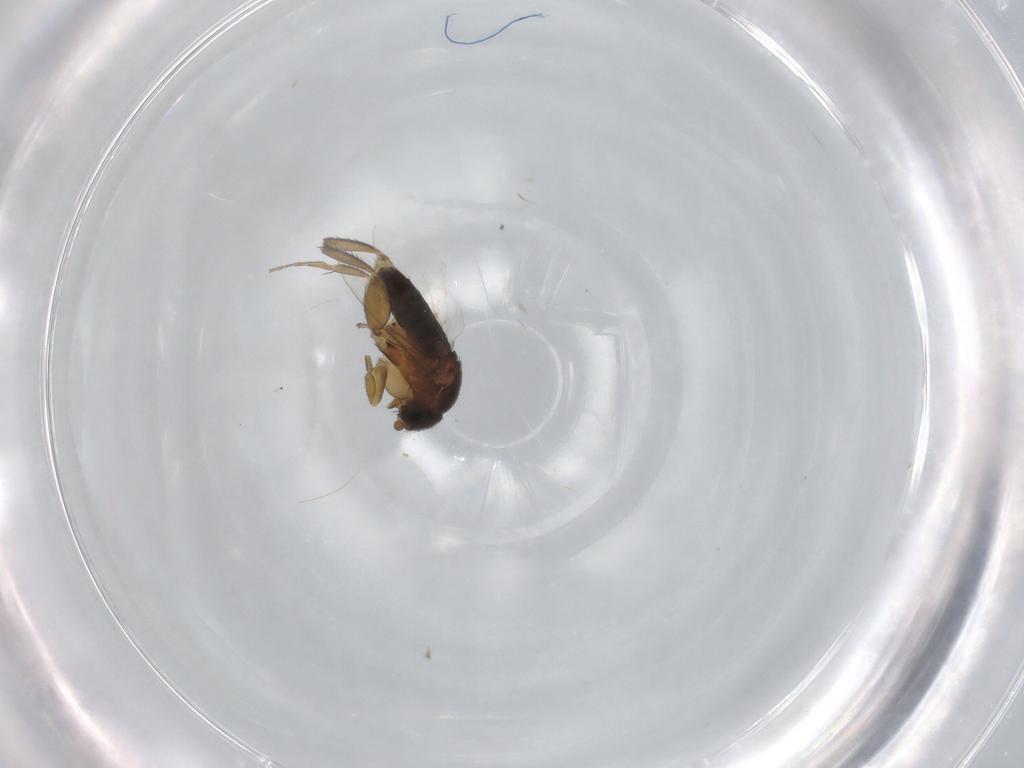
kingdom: Animalia
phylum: Arthropoda
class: Insecta
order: Diptera
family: Phoridae
